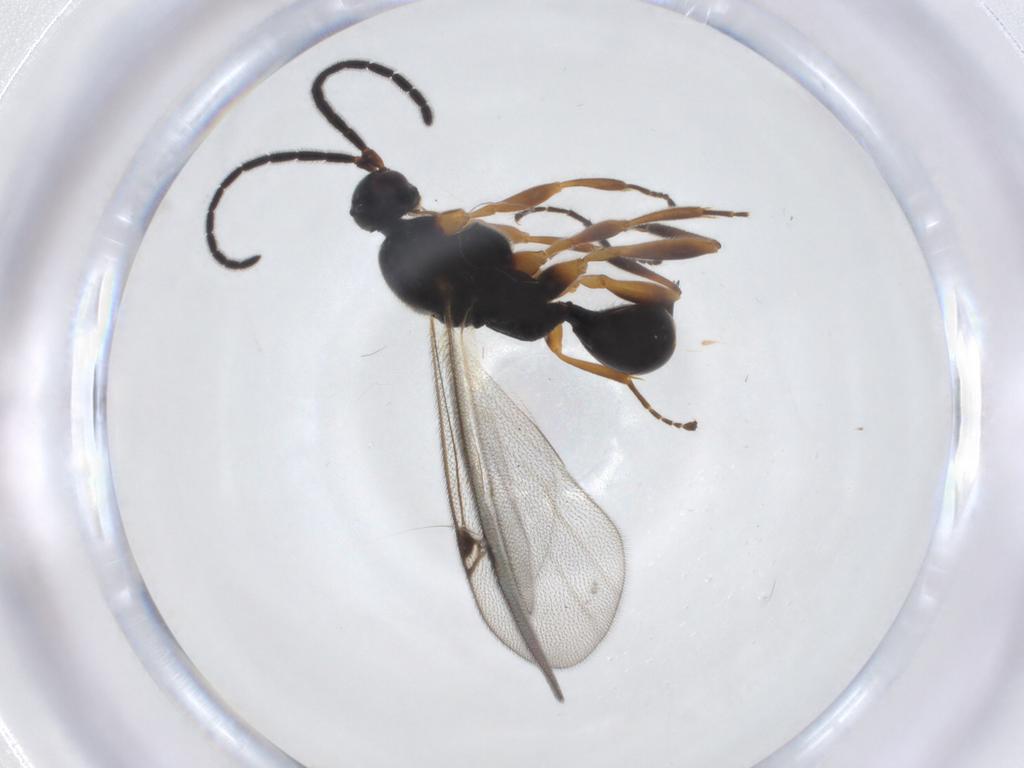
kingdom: Animalia
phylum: Arthropoda
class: Insecta
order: Hymenoptera
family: Proctotrupidae
